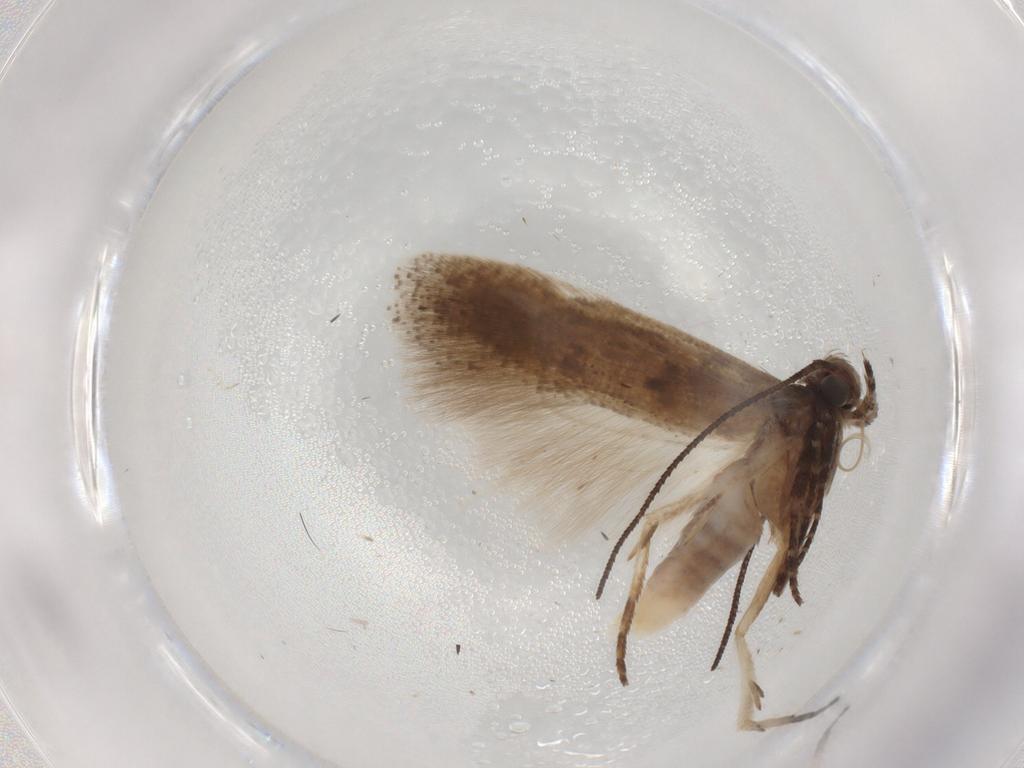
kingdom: Animalia
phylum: Arthropoda
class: Insecta
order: Lepidoptera
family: Gelechiidae
